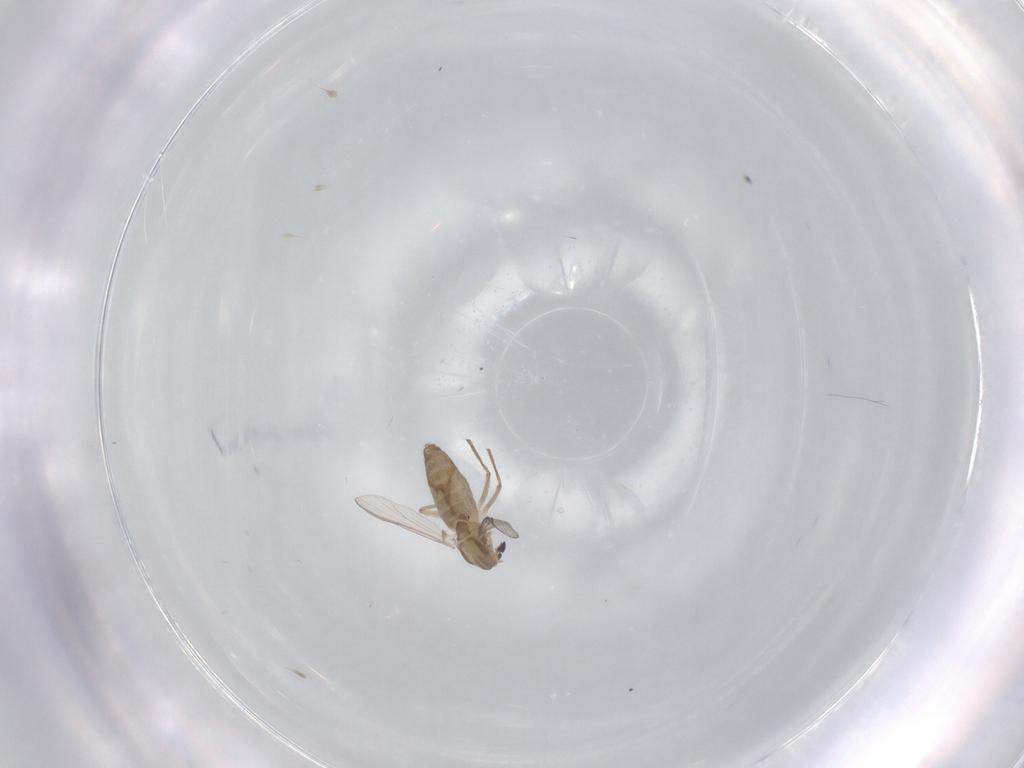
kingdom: Animalia
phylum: Arthropoda
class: Insecta
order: Diptera
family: Chironomidae
